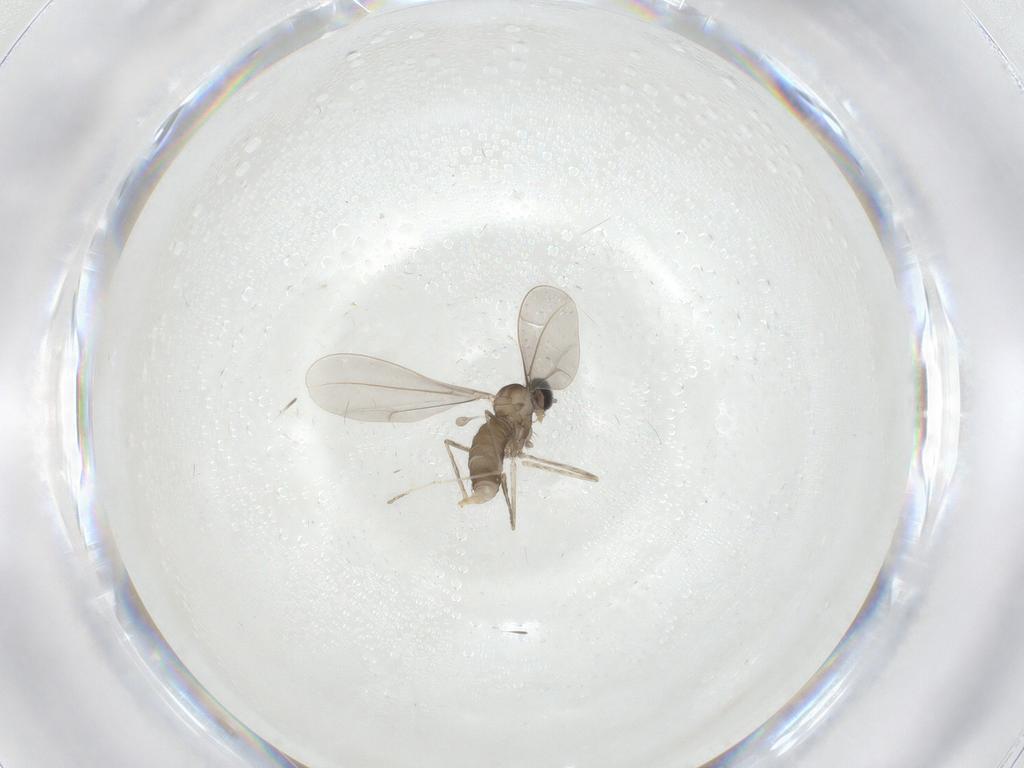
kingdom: Animalia
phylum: Arthropoda
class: Insecta
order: Diptera
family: Cecidomyiidae
